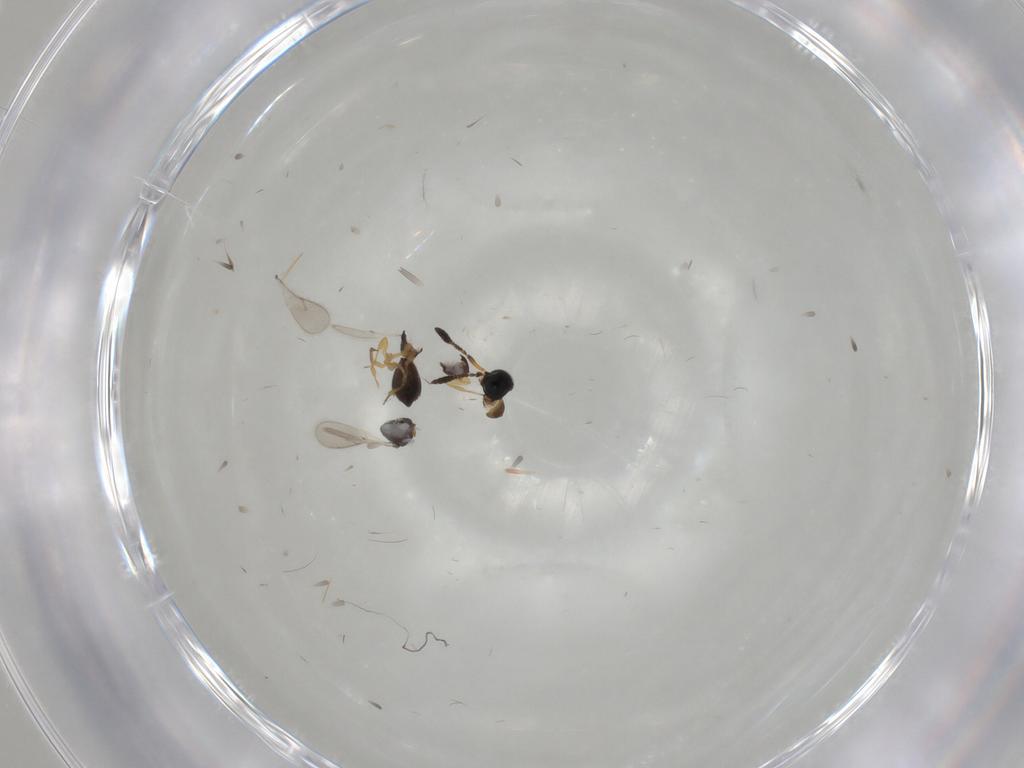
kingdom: Animalia
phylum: Arthropoda
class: Insecta
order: Hymenoptera
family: Scelionidae
